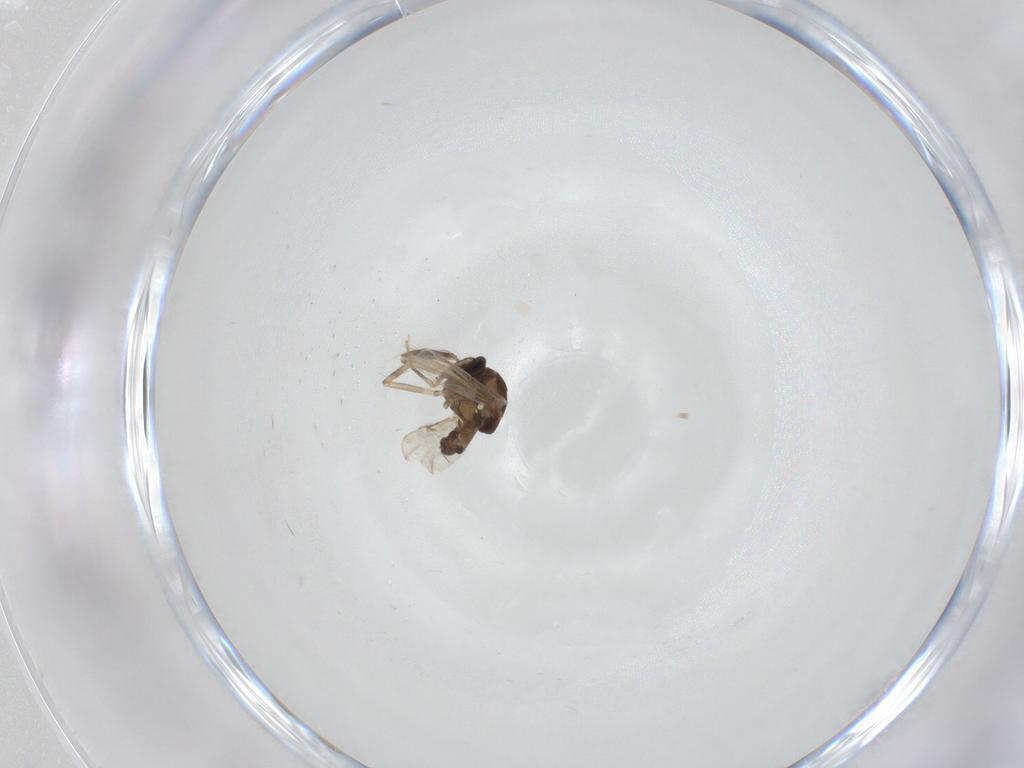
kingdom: Animalia
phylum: Arthropoda
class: Insecta
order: Diptera
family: Ceratopogonidae
